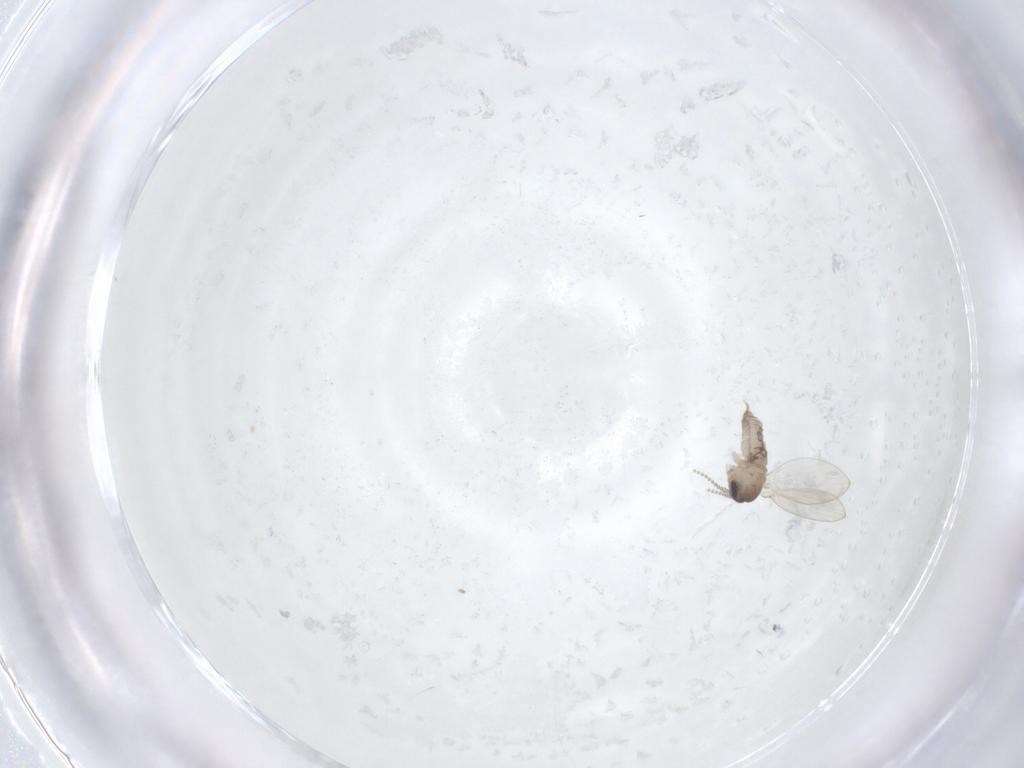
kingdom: Animalia
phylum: Arthropoda
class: Insecta
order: Diptera
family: Psychodidae
